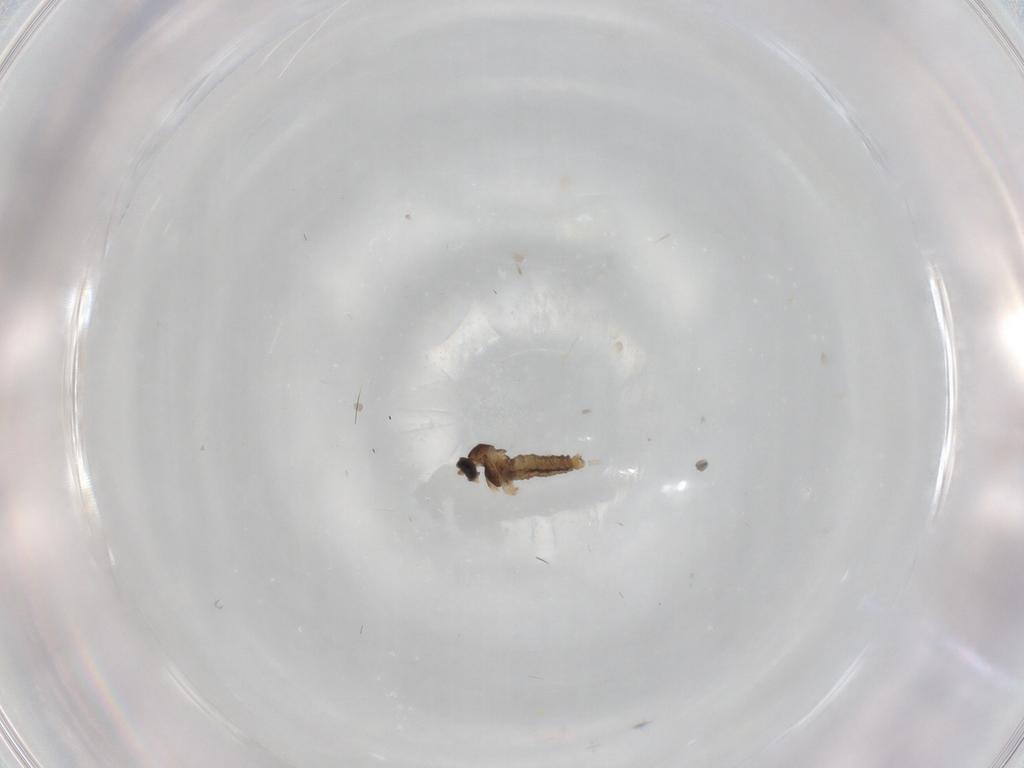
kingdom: Animalia
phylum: Arthropoda
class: Insecta
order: Diptera
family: Cecidomyiidae
